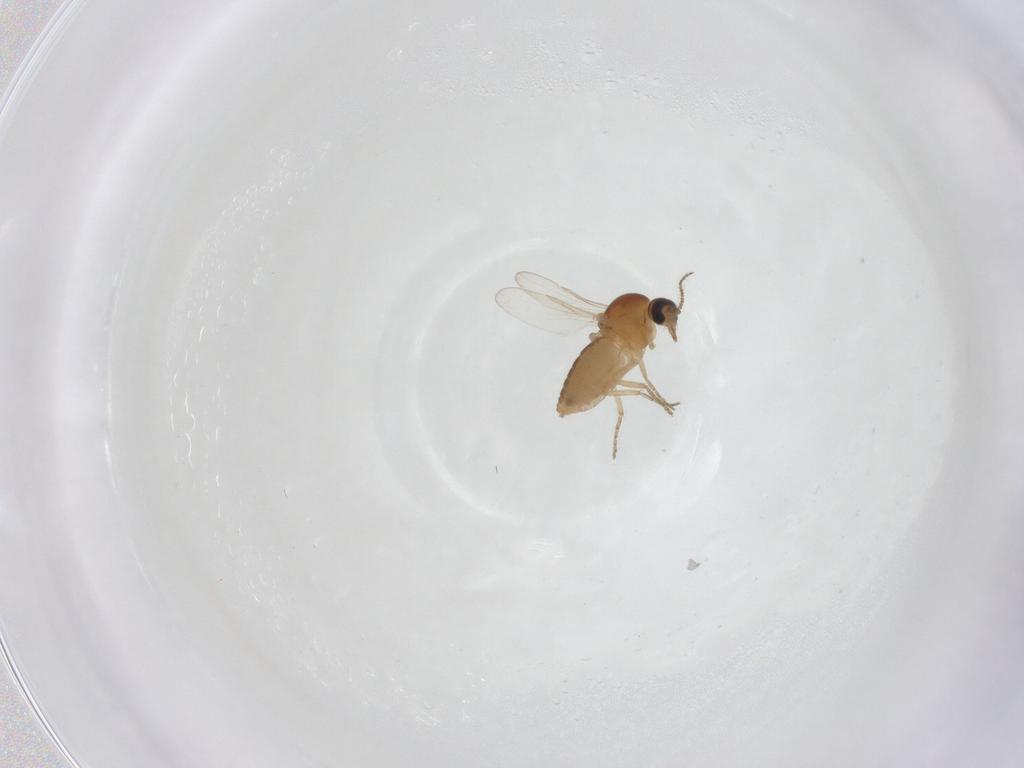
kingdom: Animalia
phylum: Arthropoda
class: Insecta
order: Diptera
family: Ceratopogonidae
